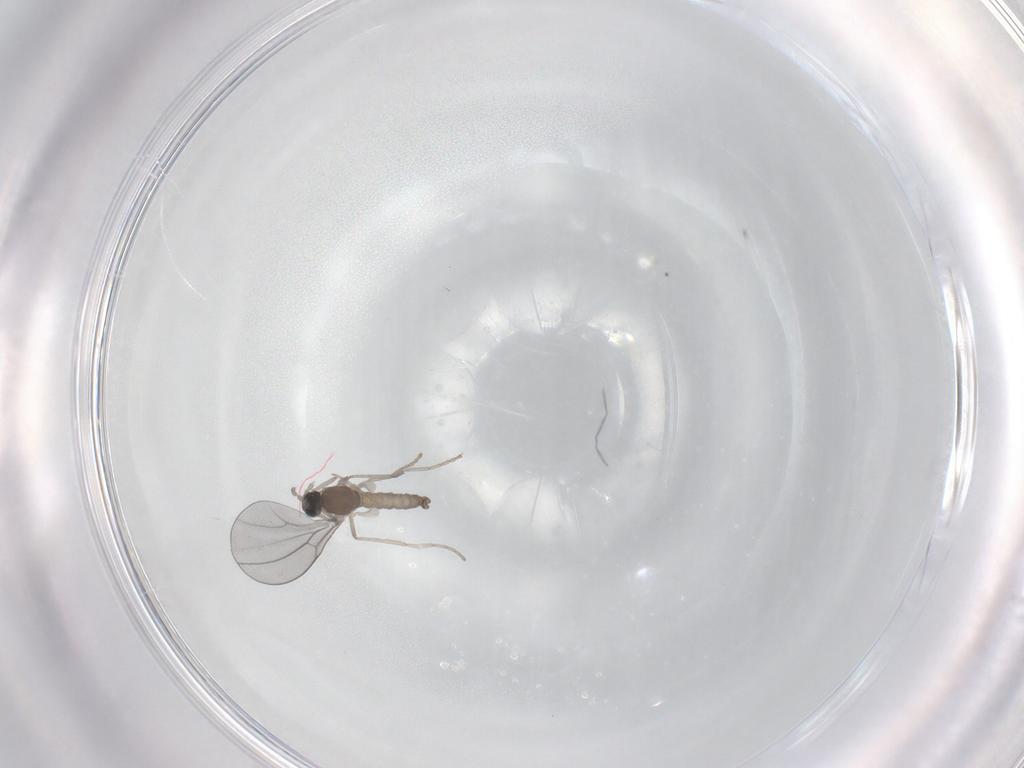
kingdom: Animalia
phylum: Arthropoda
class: Insecta
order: Diptera
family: Cecidomyiidae
